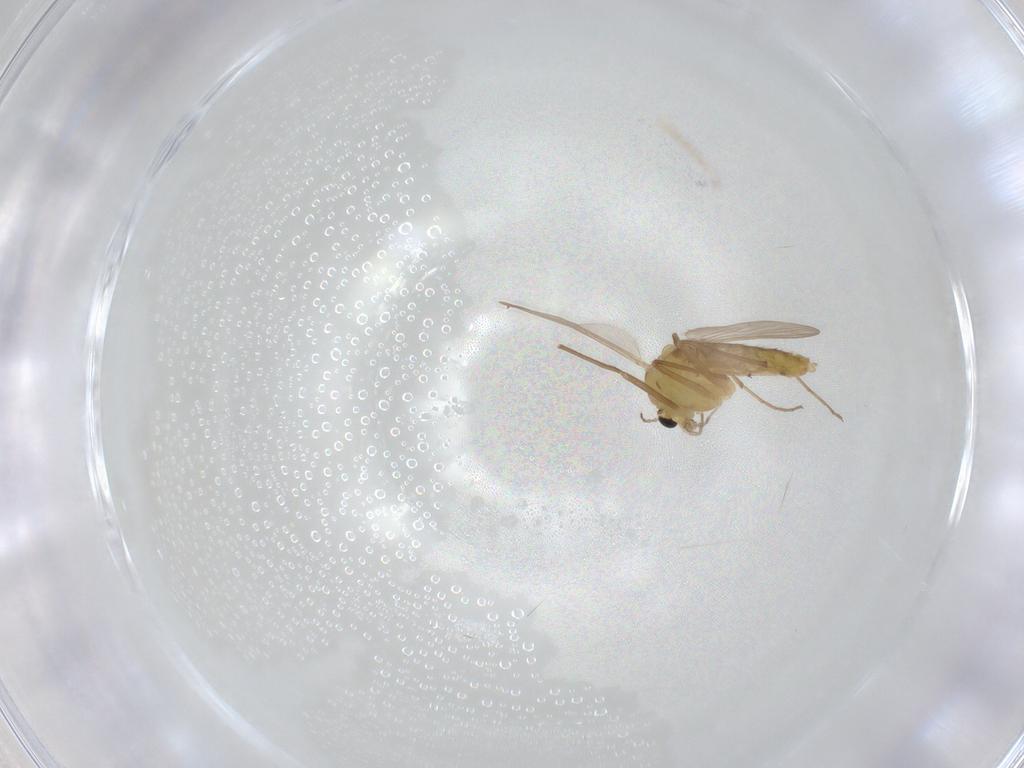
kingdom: Animalia
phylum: Arthropoda
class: Insecta
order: Diptera
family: Chironomidae
